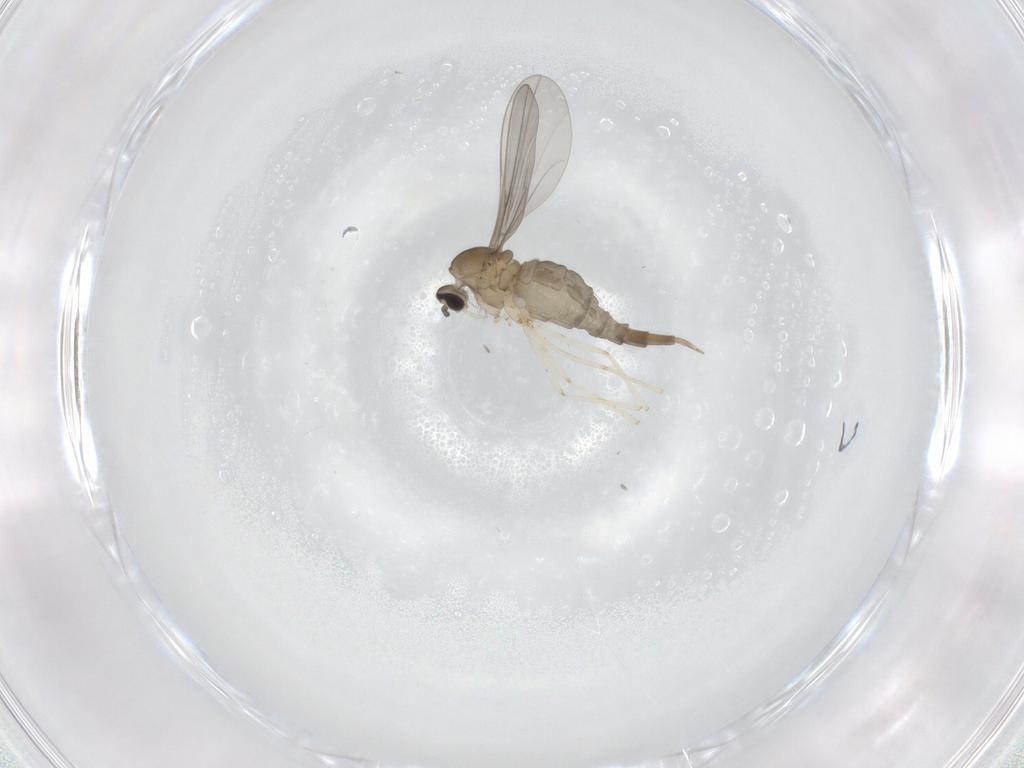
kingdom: Animalia
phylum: Arthropoda
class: Insecta
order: Diptera
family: Cecidomyiidae
